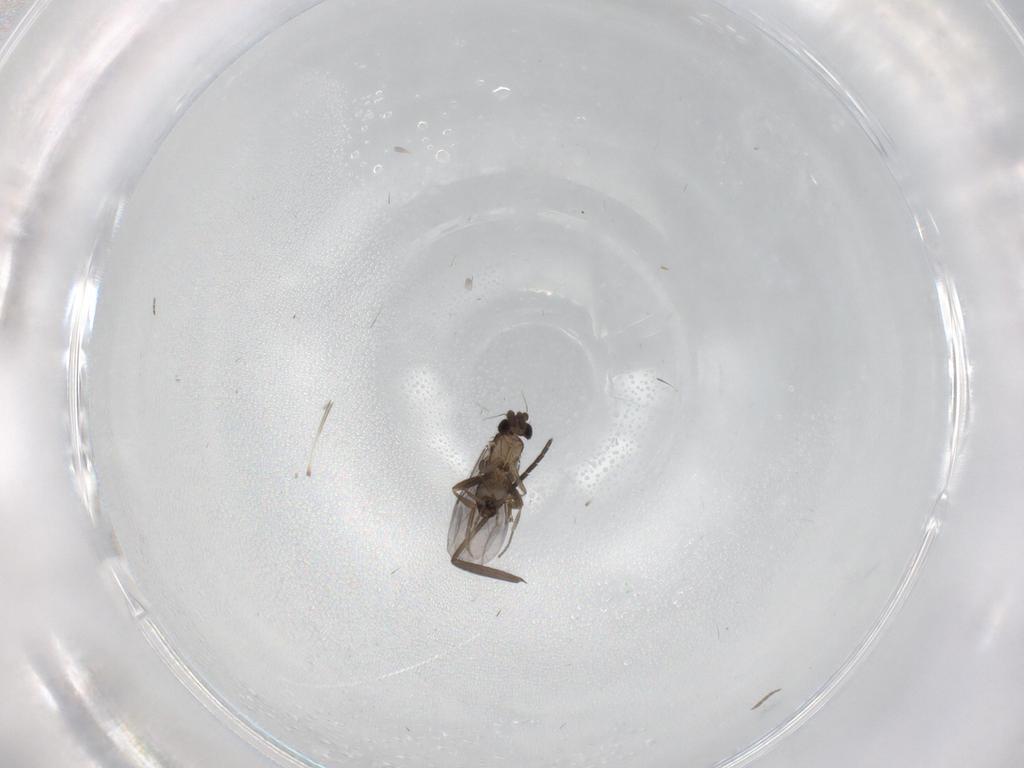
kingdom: Animalia
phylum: Arthropoda
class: Insecta
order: Diptera
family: Sciaridae
